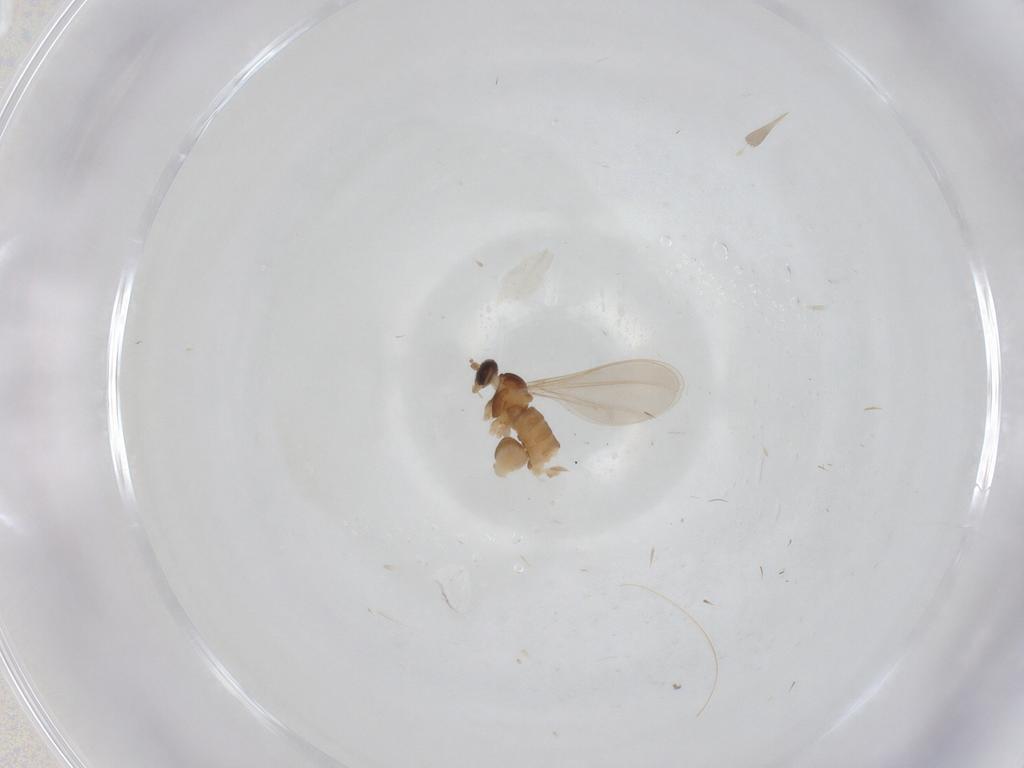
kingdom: Animalia
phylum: Arthropoda
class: Insecta
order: Diptera
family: Cecidomyiidae
